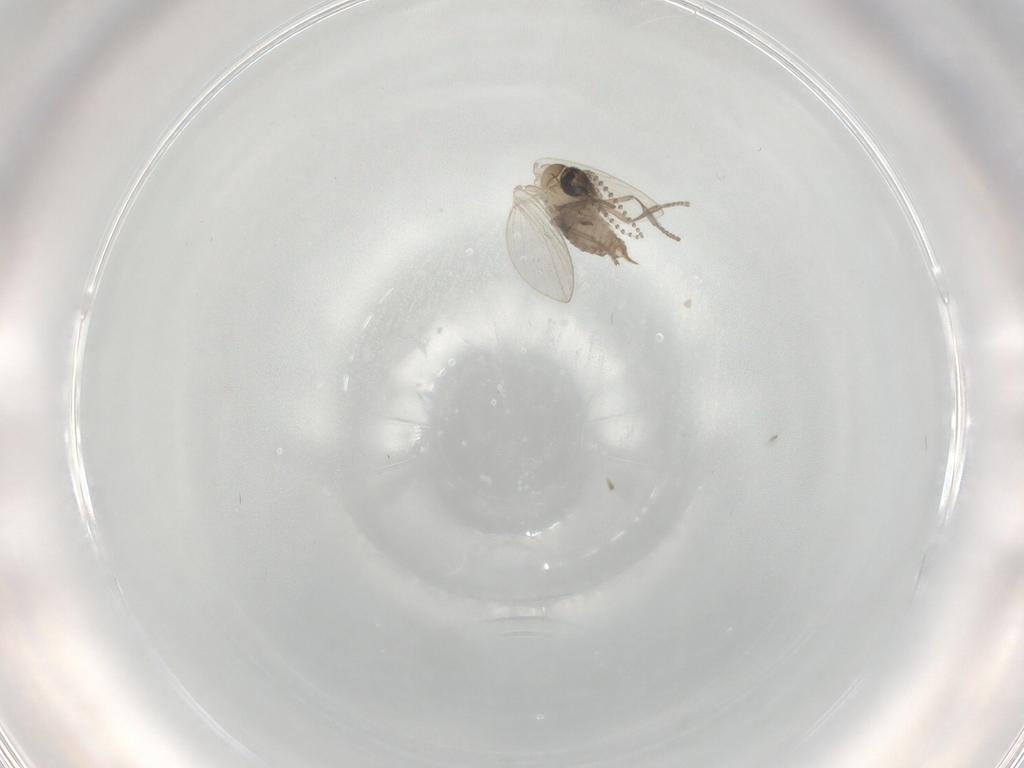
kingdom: Animalia
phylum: Arthropoda
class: Insecta
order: Diptera
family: Psychodidae
